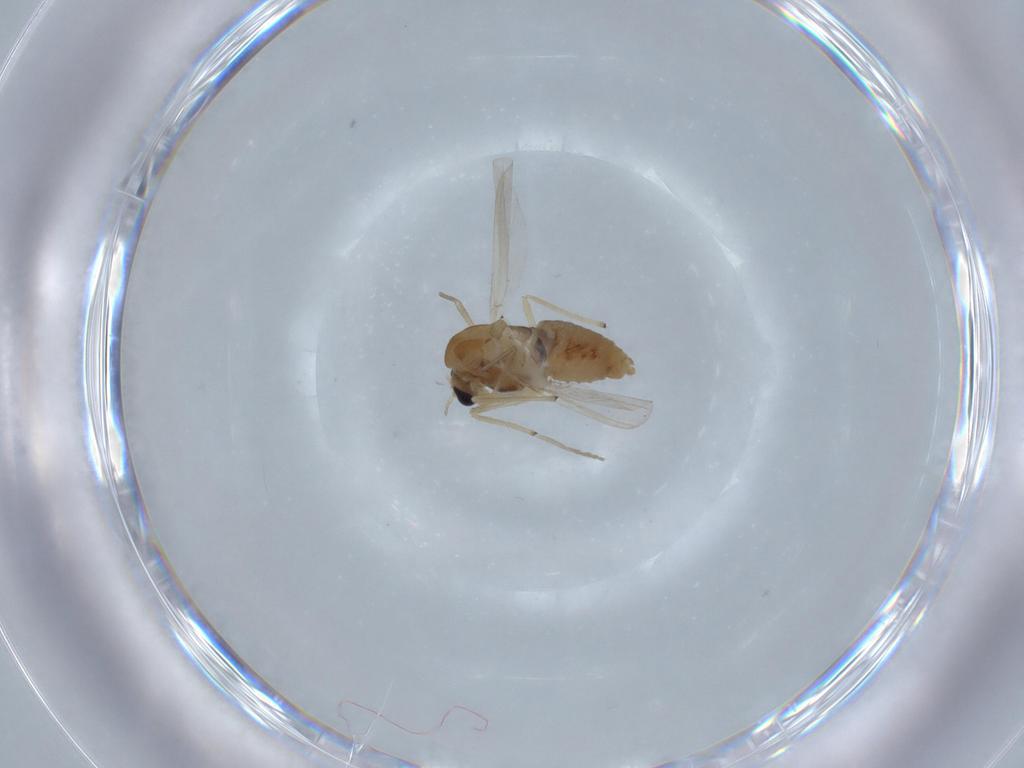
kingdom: Animalia
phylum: Arthropoda
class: Insecta
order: Diptera
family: Chironomidae
